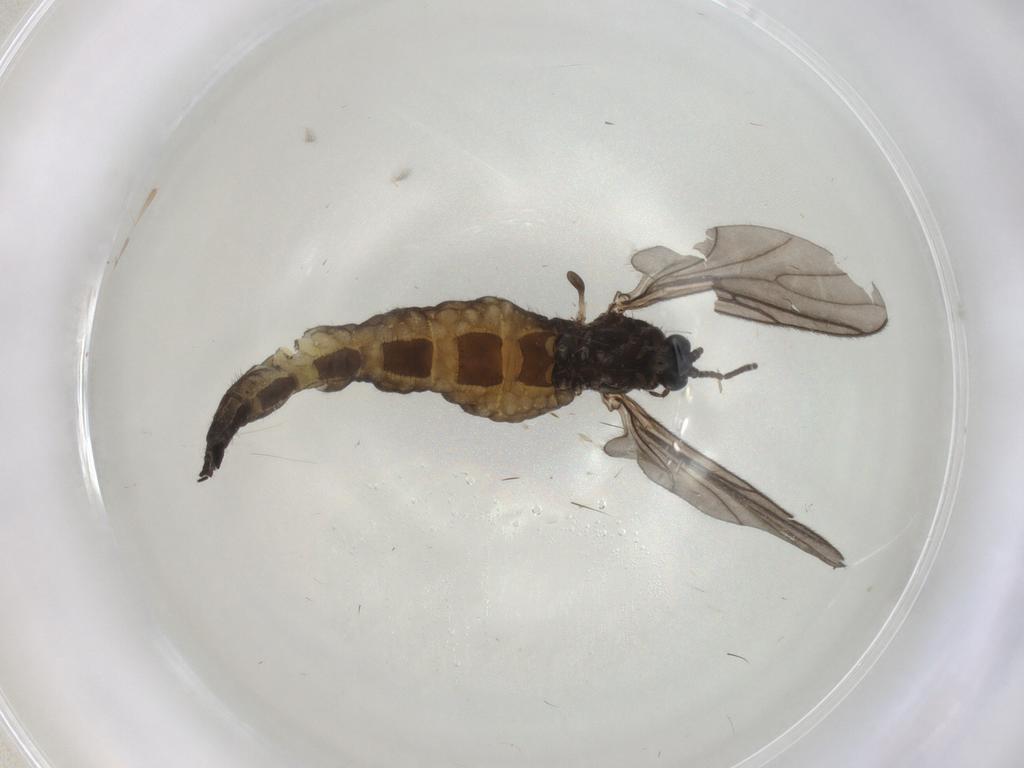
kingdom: Animalia
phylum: Arthropoda
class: Insecta
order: Diptera
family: Sciaridae
